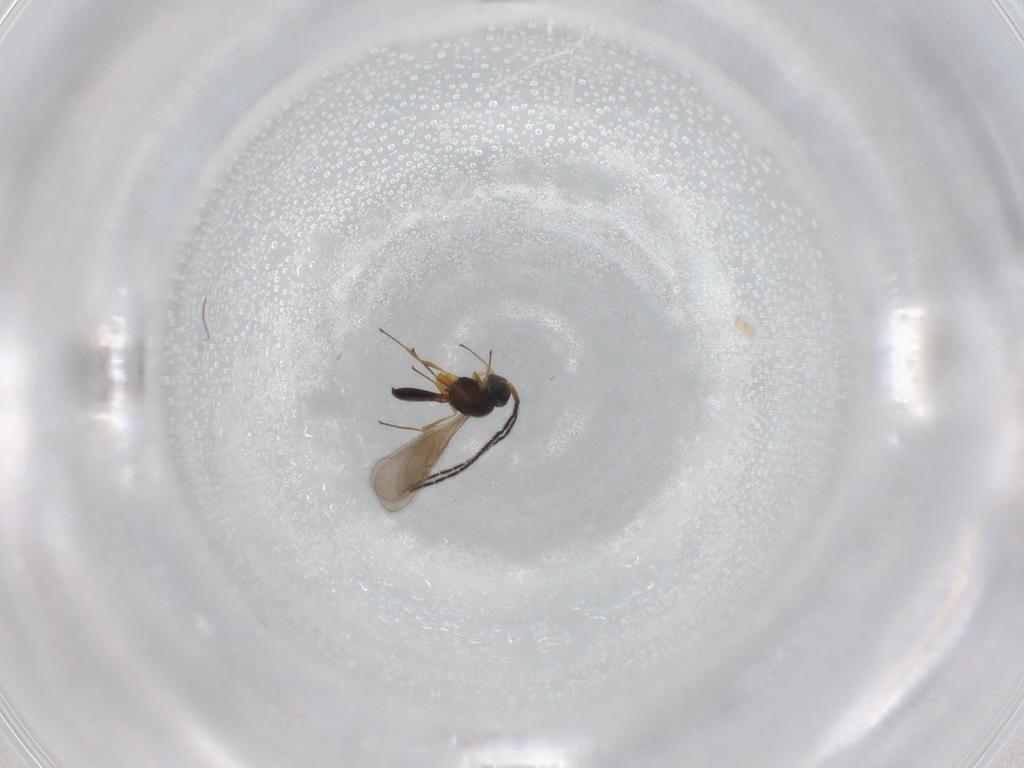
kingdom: Animalia
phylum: Arthropoda
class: Insecta
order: Hymenoptera
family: Scelionidae
